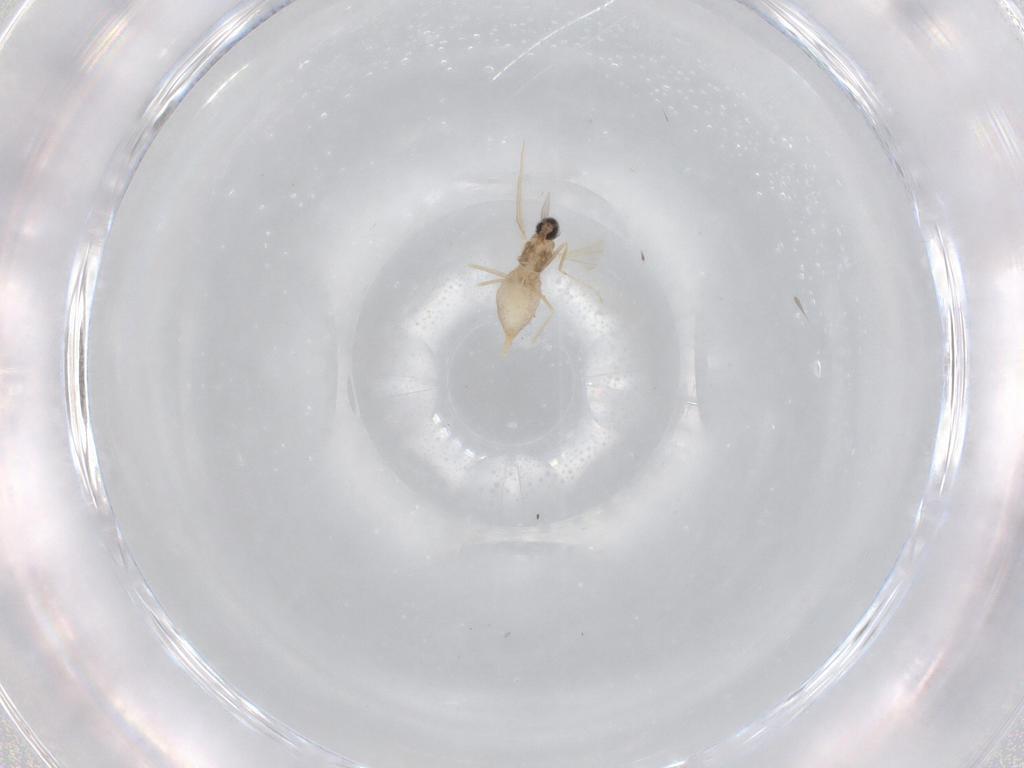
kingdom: Animalia
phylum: Arthropoda
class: Insecta
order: Diptera
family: Cecidomyiidae
